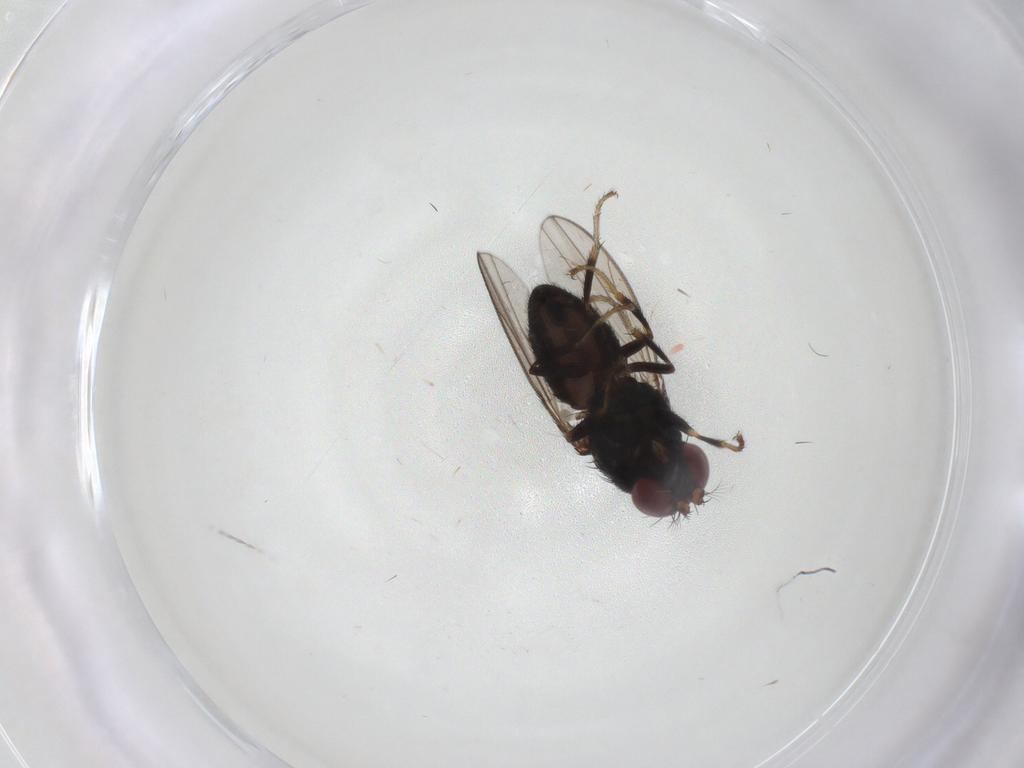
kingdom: Animalia
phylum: Arthropoda
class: Insecta
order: Diptera
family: Ephydridae
